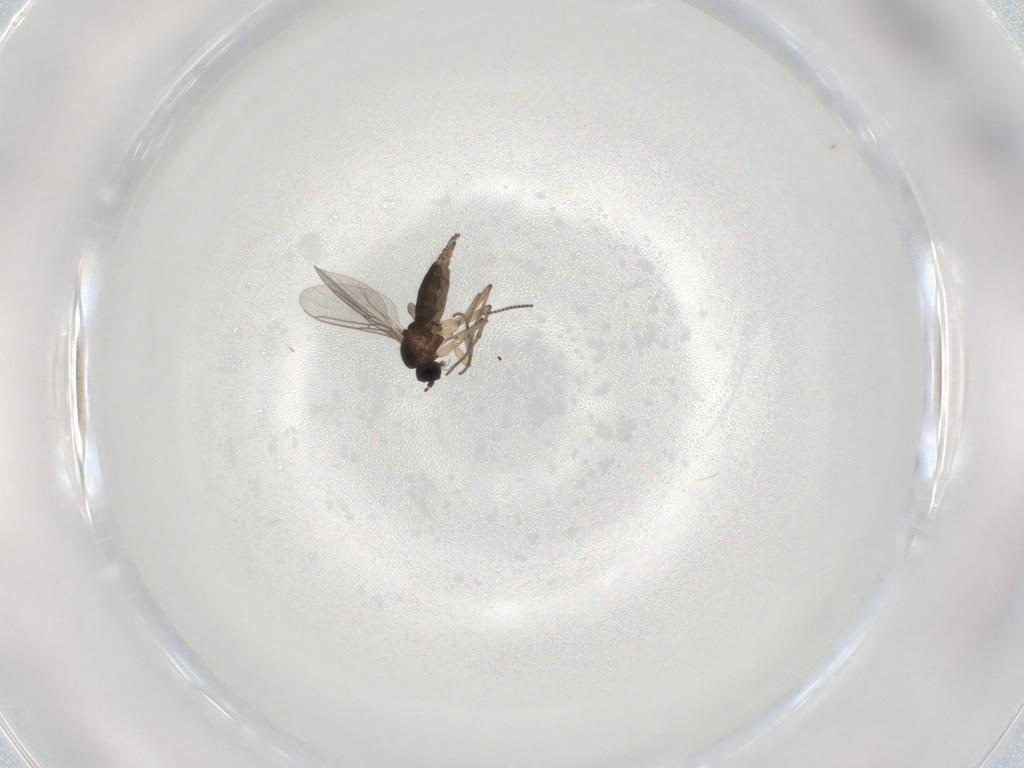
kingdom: Animalia
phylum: Arthropoda
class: Insecta
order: Diptera
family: Sciaridae
